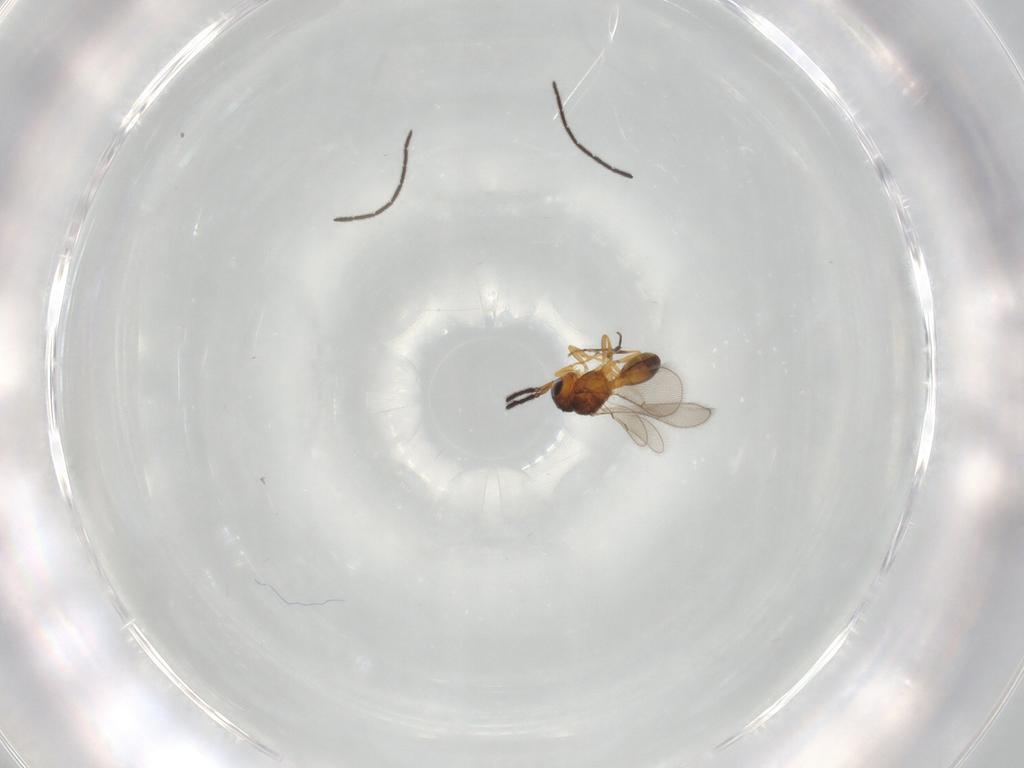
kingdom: Animalia
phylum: Arthropoda
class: Insecta
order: Hymenoptera
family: Scelionidae
